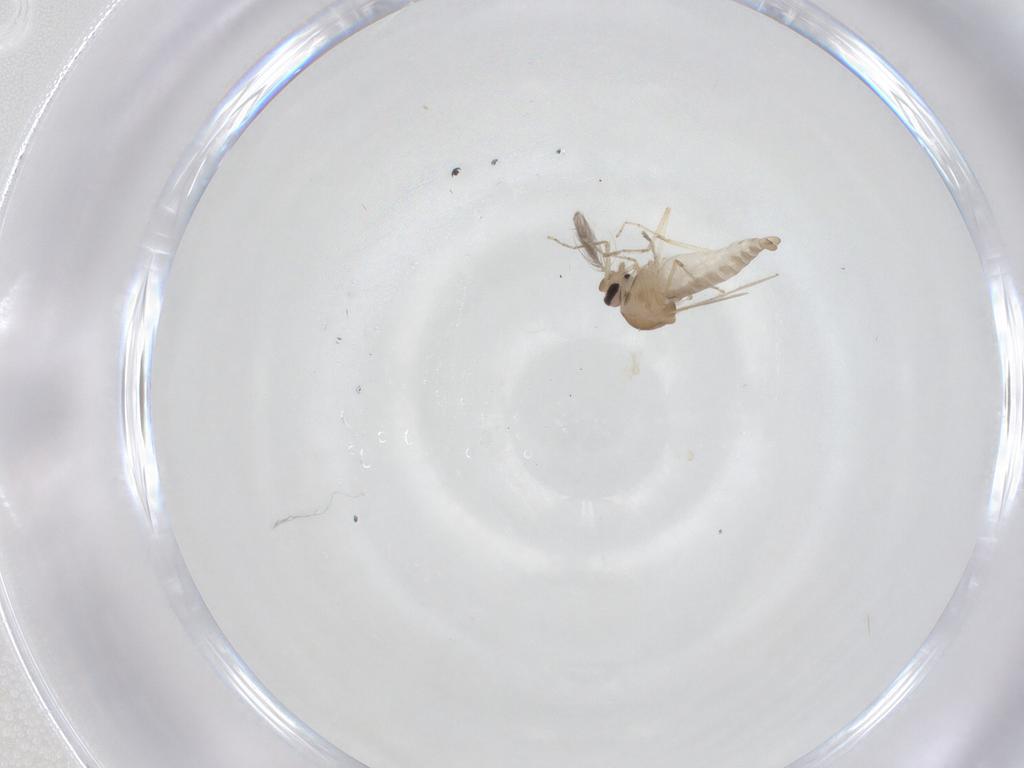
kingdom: Animalia
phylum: Arthropoda
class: Insecta
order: Diptera
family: Ceratopogonidae
